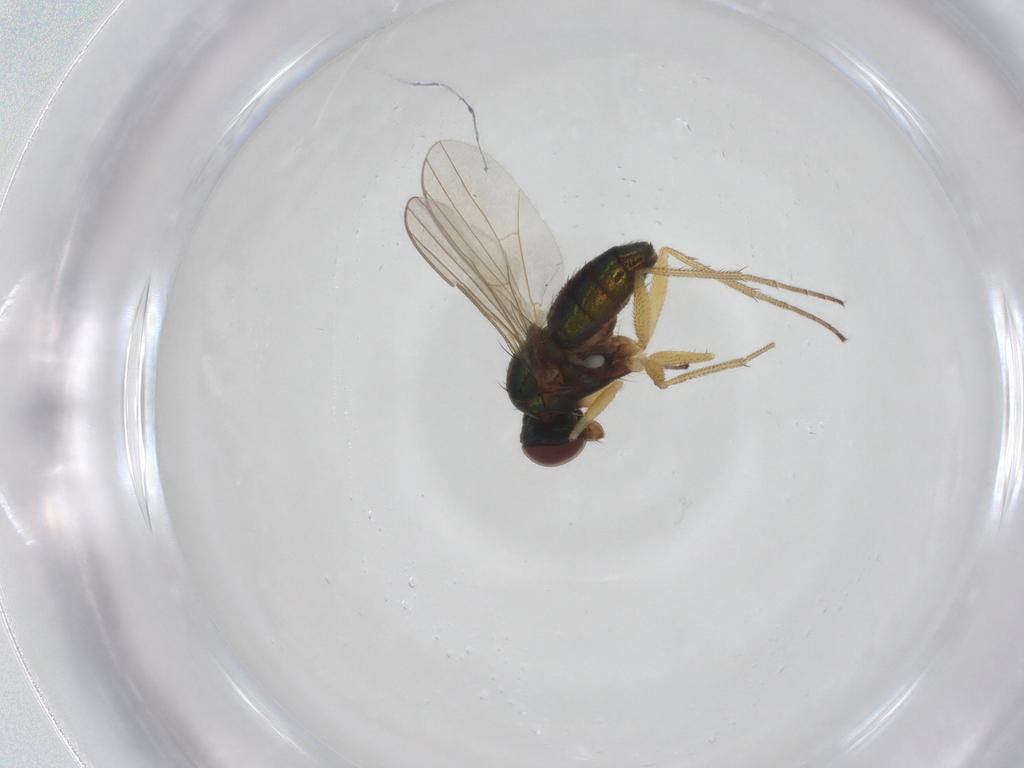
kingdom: Animalia
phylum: Arthropoda
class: Insecta
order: Diptera
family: Dolichopodidae
